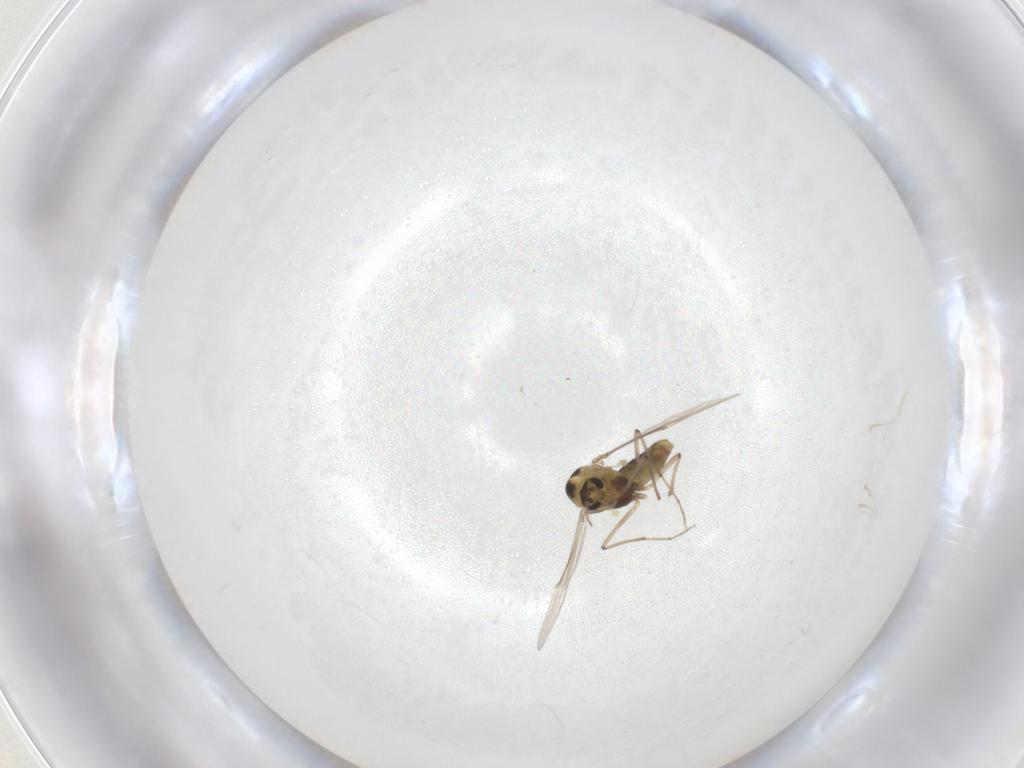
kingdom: Animalia
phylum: Arthropoda
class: Insecta
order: Diptera
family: Chironomidae
